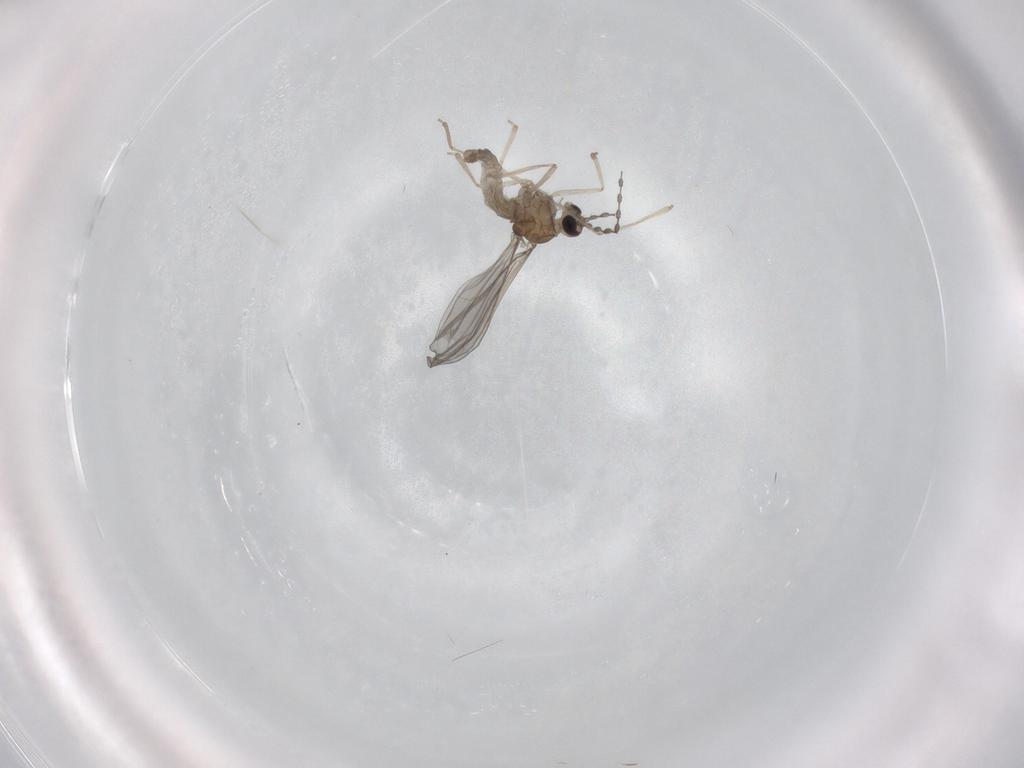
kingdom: Animalia
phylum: Arthropoda
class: Insecta
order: Diptera
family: Cecidomyiidae
